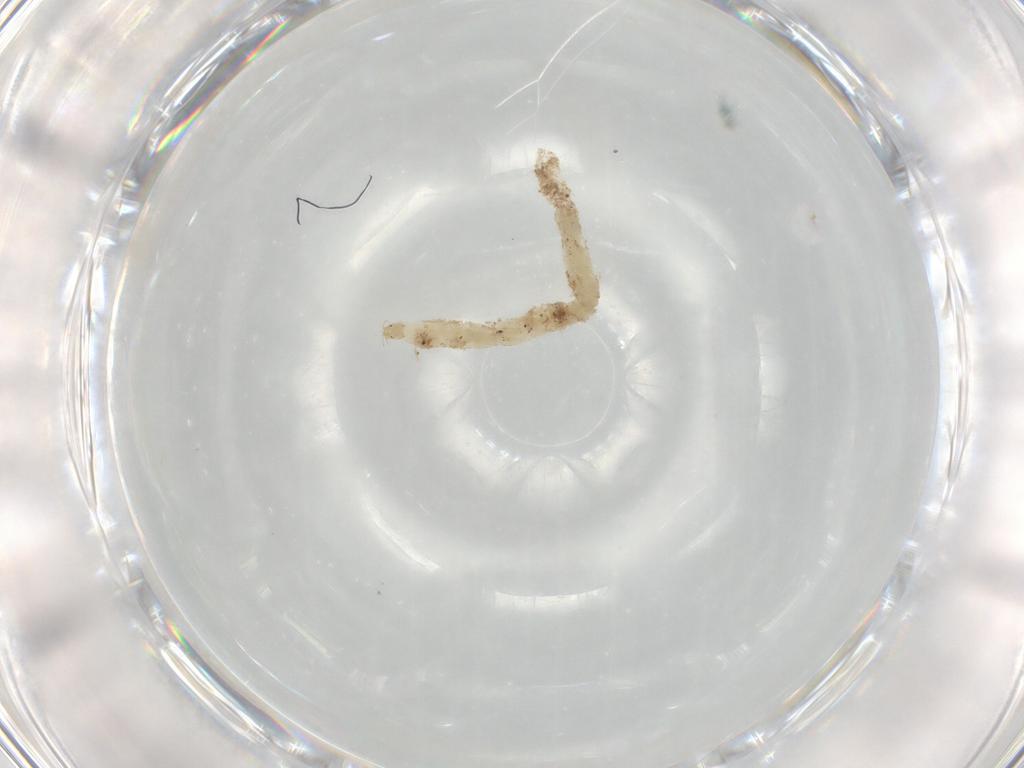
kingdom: Animalia
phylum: Arthropoda
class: Insecta
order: Diptera
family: Chironomidae
